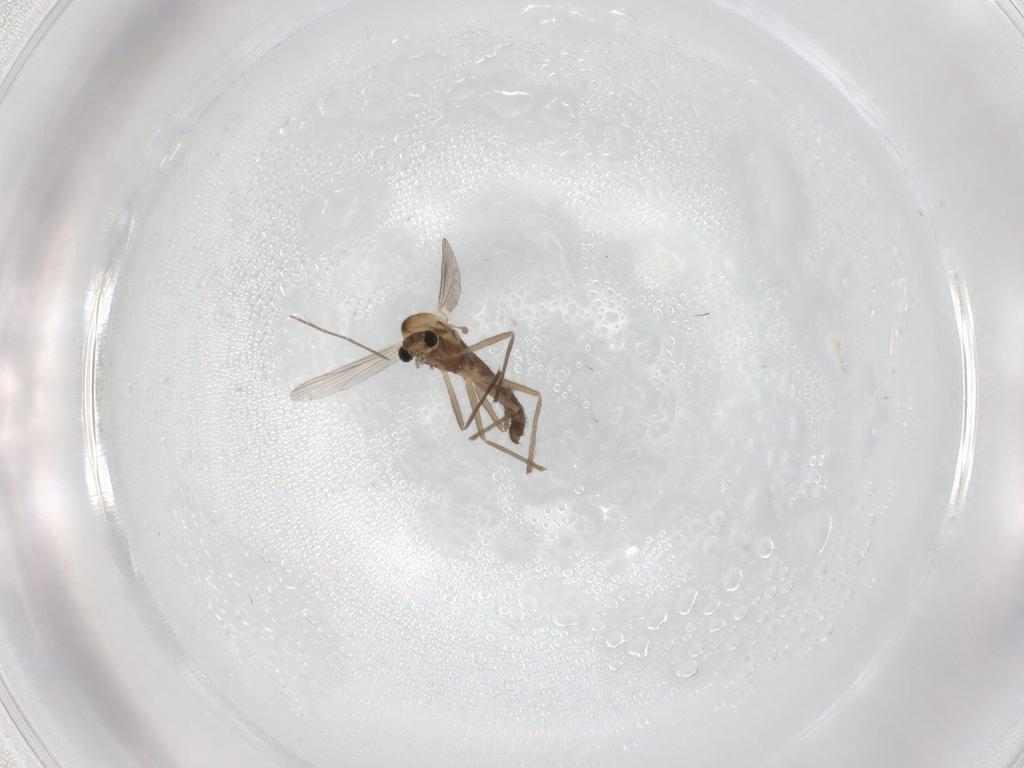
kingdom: Animalia
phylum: Arthropoda
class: Insecta
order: Diptera
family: Chironomidae
